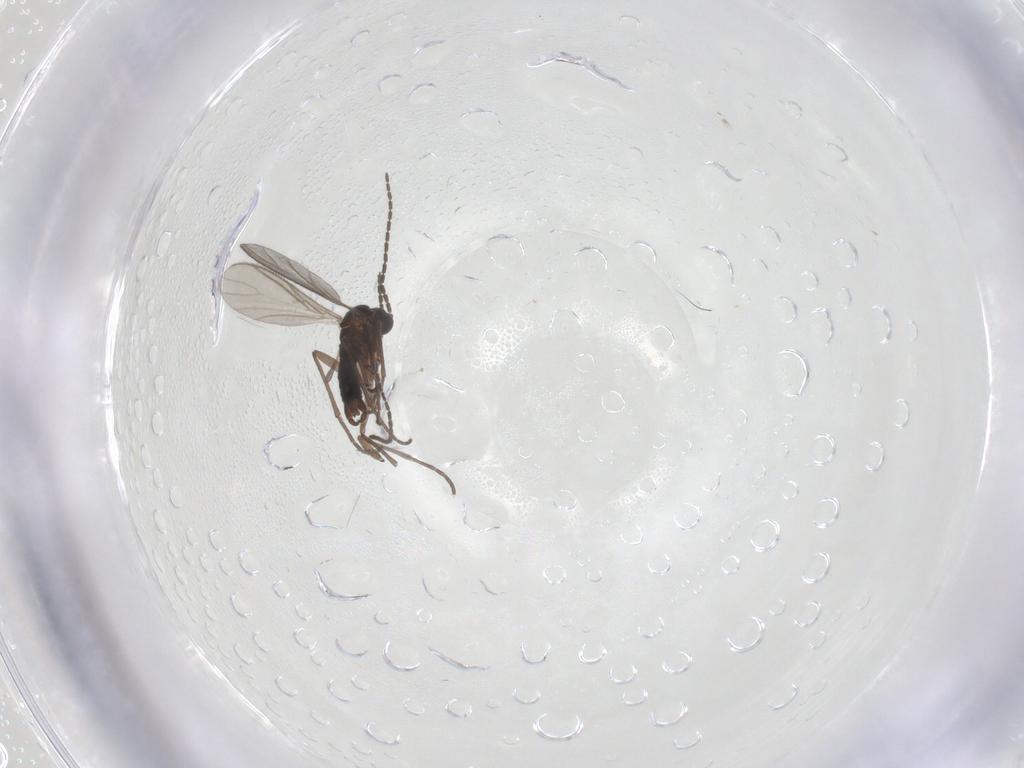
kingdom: Animalia
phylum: Arthropoda
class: Insecta
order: Diptera
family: Sciaridae
